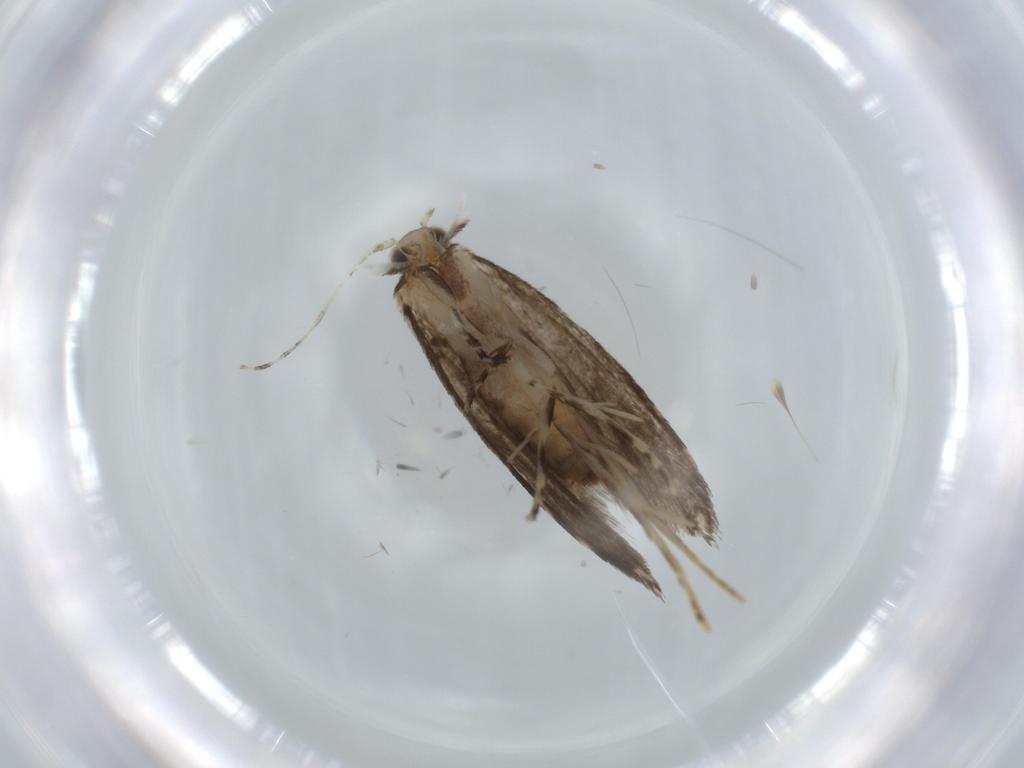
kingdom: Animalia
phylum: Arthropoda
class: Insecta
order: Lepidoptera
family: Tineidae
